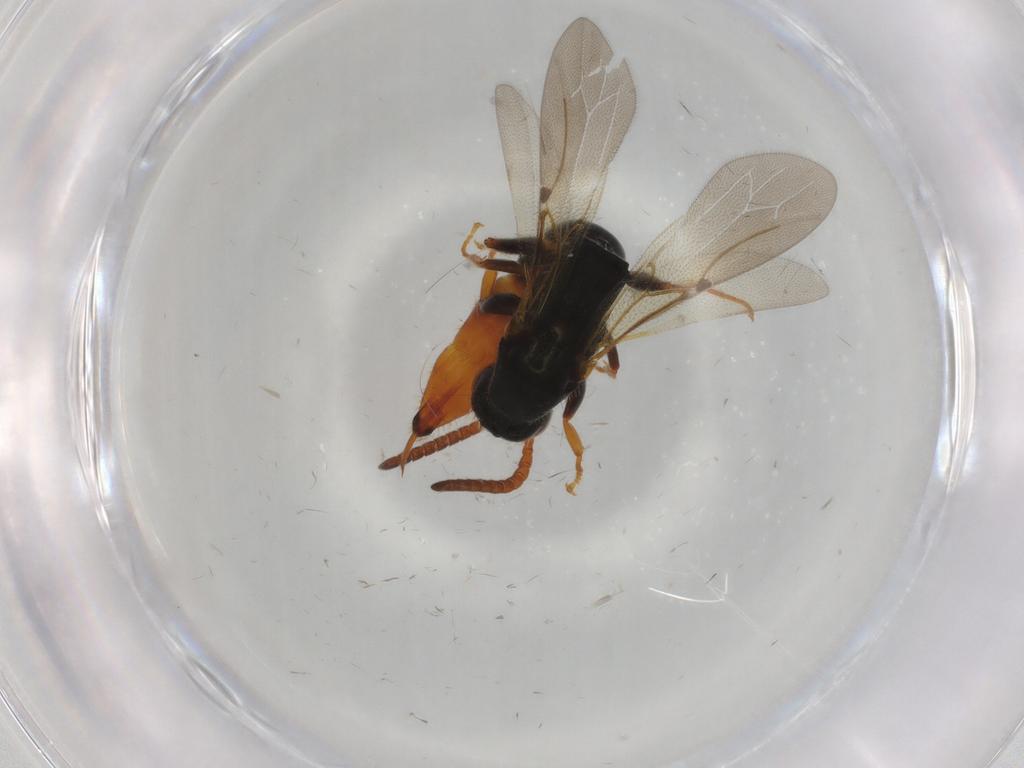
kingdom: Animalia
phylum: Arthropoda
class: Insecta
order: Hymenoptera
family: Bethylidae
